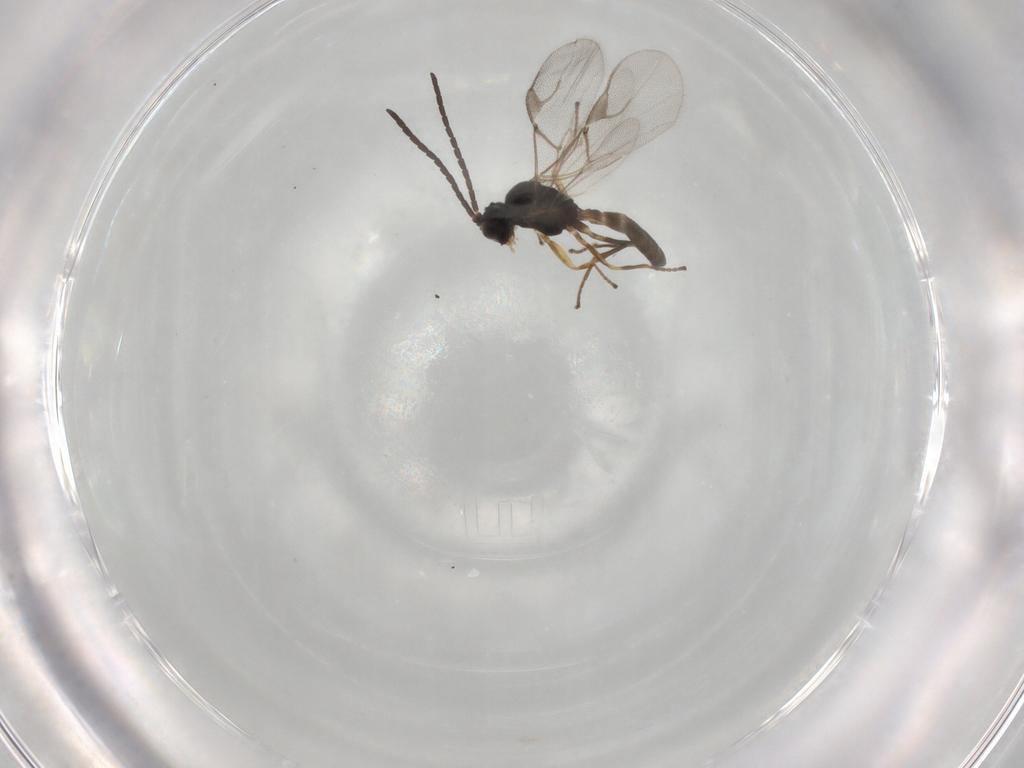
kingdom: Animalia
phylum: Arthropoda
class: Insecta
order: Hymenoptera
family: Braconidae
